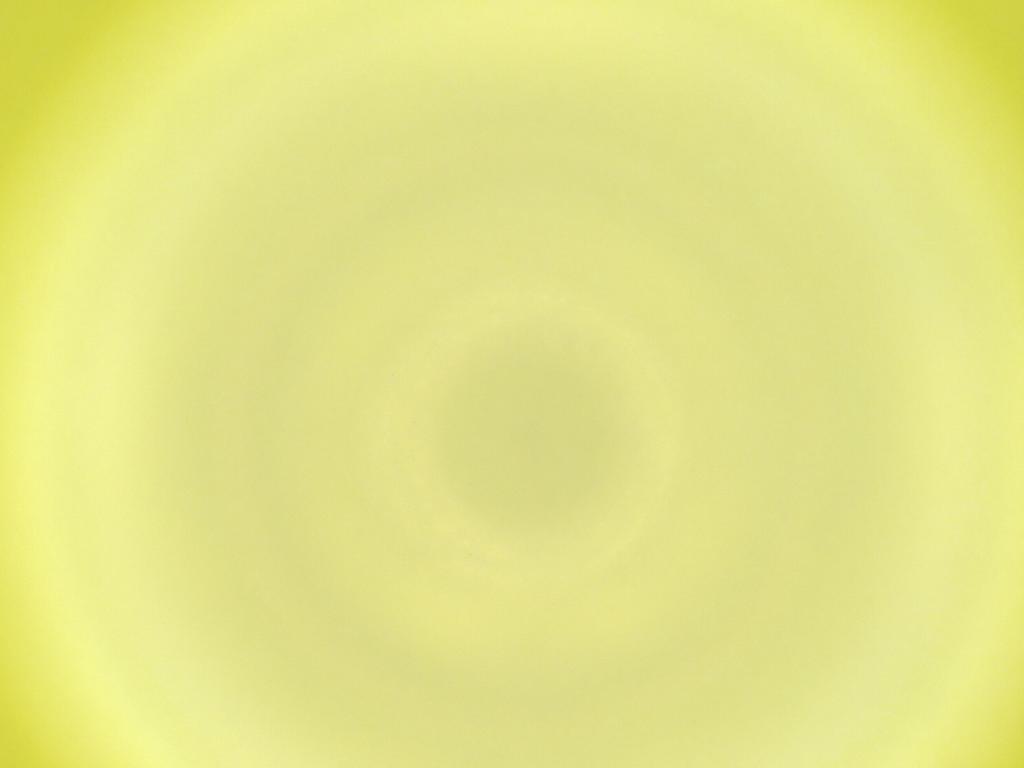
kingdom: Animalia
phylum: Arthropoda
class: Insecta
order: Diptera
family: Cecidomyiidae
